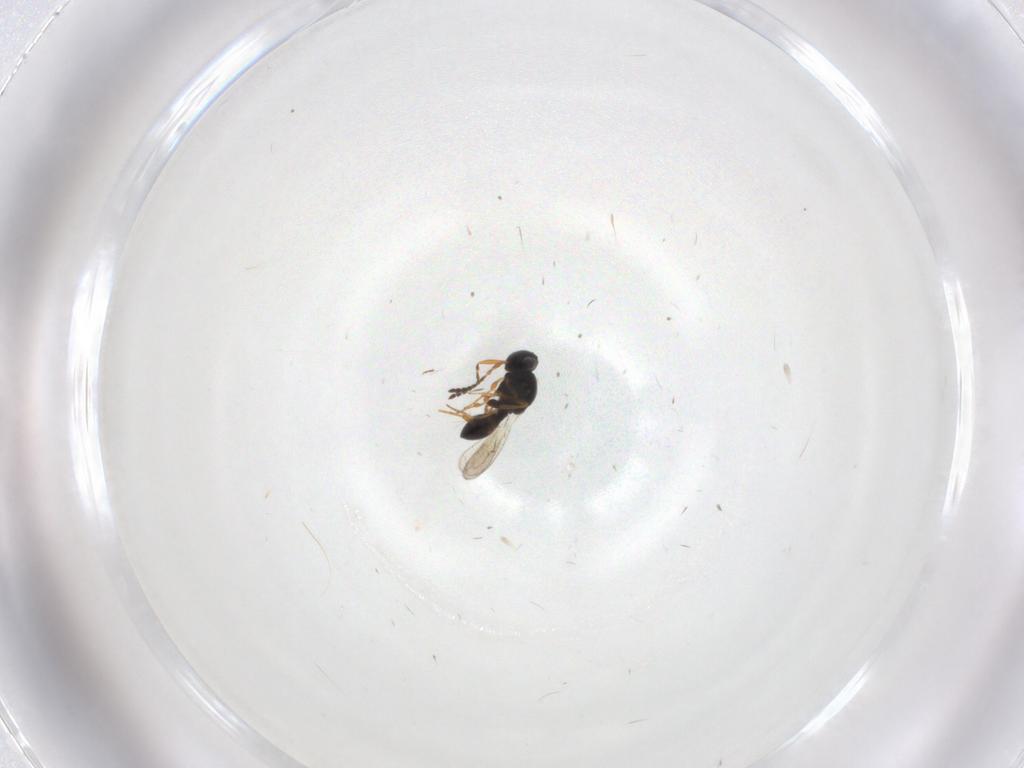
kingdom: Animalia
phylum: Arthropoda
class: Insecta
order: Hymenoptera
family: Platygastridae
